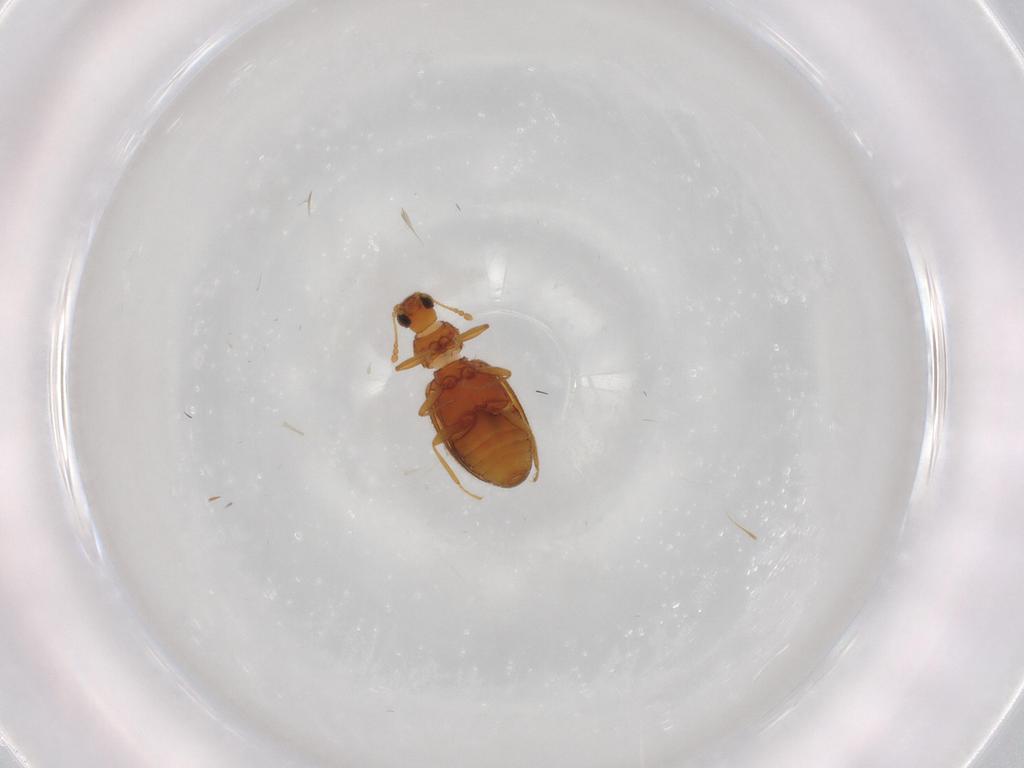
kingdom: Animalia
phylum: Arthropoda
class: Insecta
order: Coleoptera
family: Latridiidae
